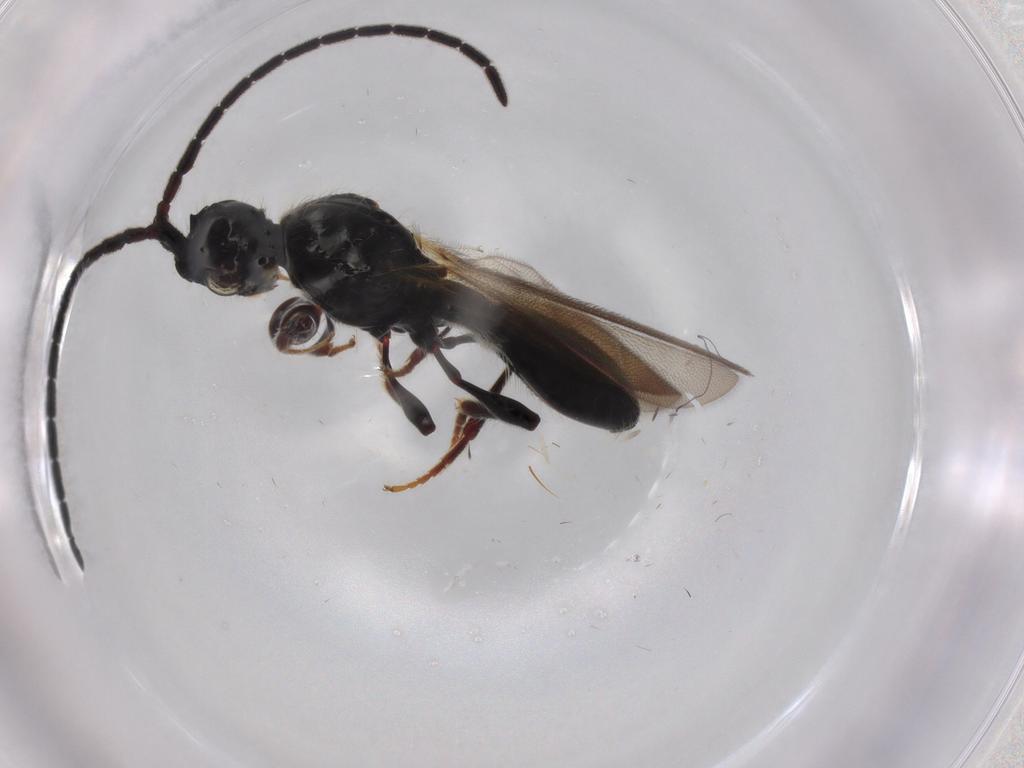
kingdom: Animalia
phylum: Arthropoda
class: Insecta
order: Hymenoptera
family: Diapriidae
